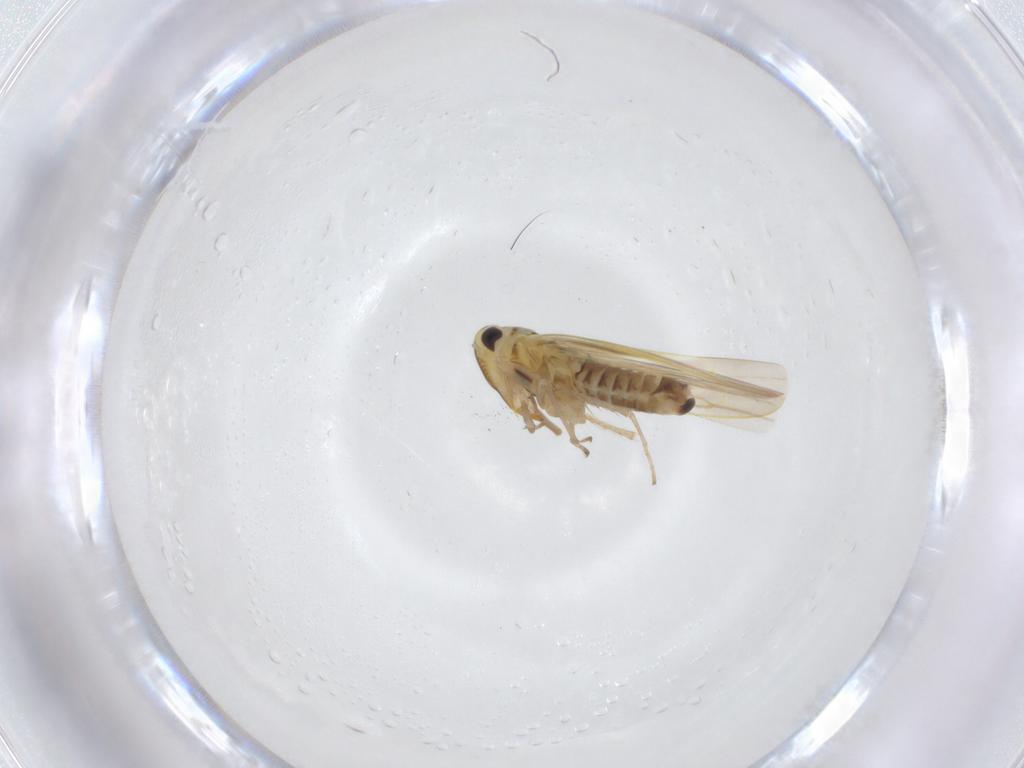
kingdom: Animalia
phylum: Arthropoda
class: Insecta
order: Hemiptera
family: Cicadellidae
